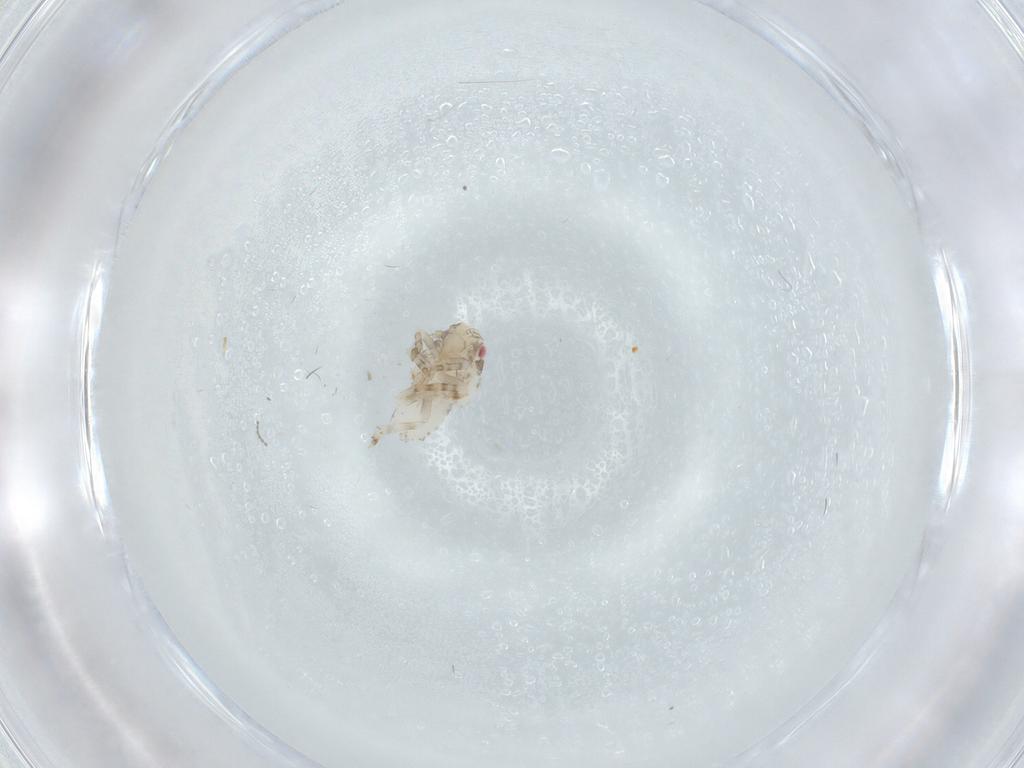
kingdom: Animalia
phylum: Arthropoda
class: Insecta
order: Hemiptera
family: Acanaloniidae
